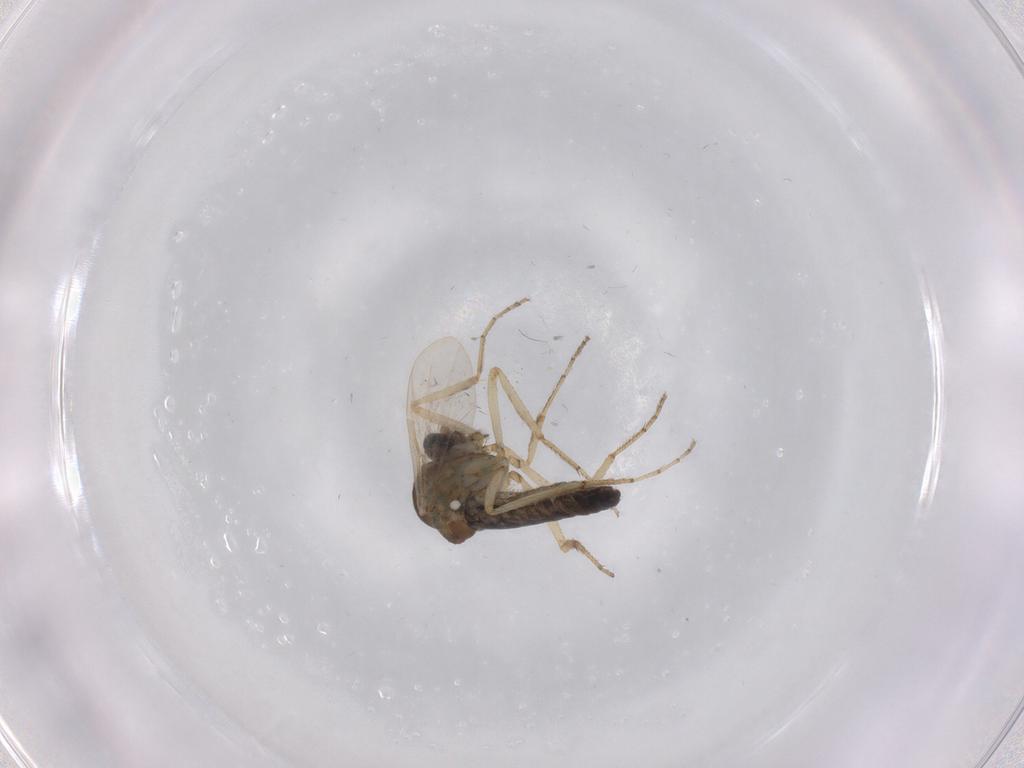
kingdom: Animalia
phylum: Arthropoda
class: Insecta
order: Diptera
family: Ceratopogonidae
